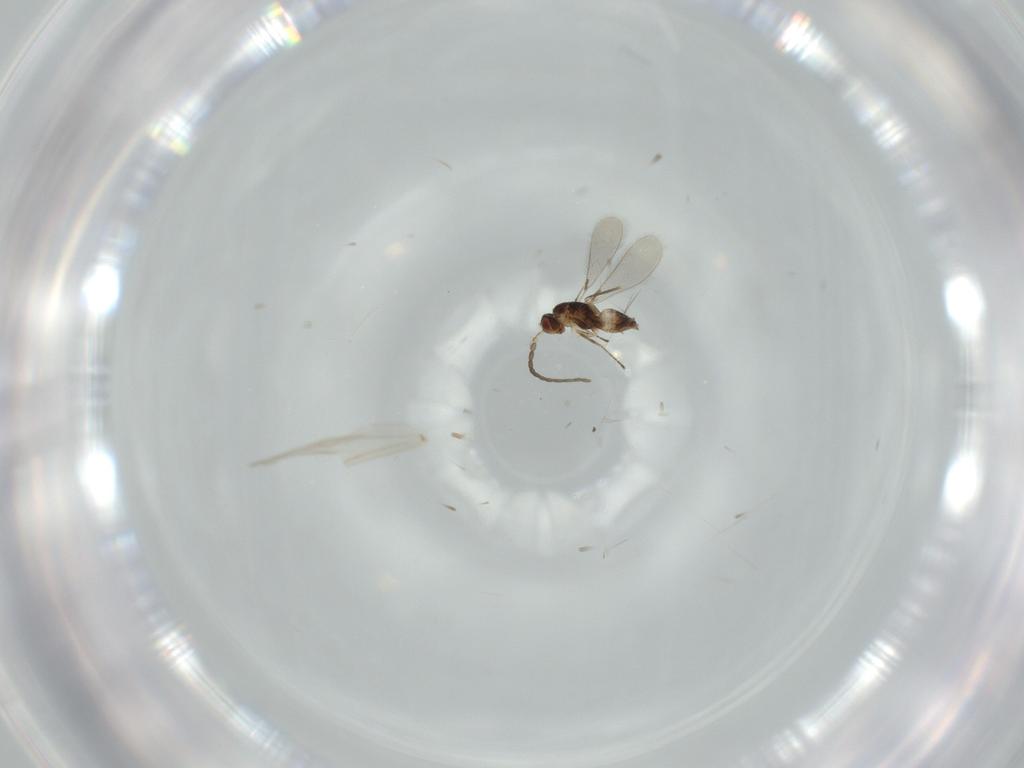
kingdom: Animalia
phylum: Arthropoda
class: Insecta
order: Hymenoptera
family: Mymaridae
